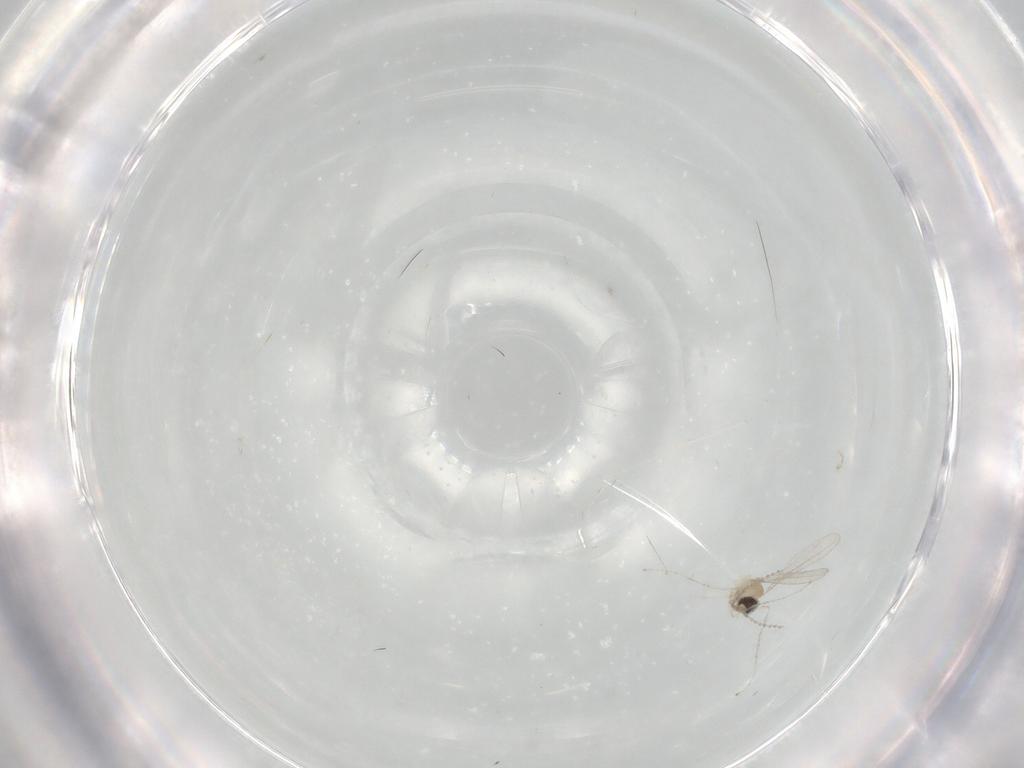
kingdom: Animalia
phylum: Arthropoda
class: Insecta
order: Diptera
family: Cecidomyiidae
